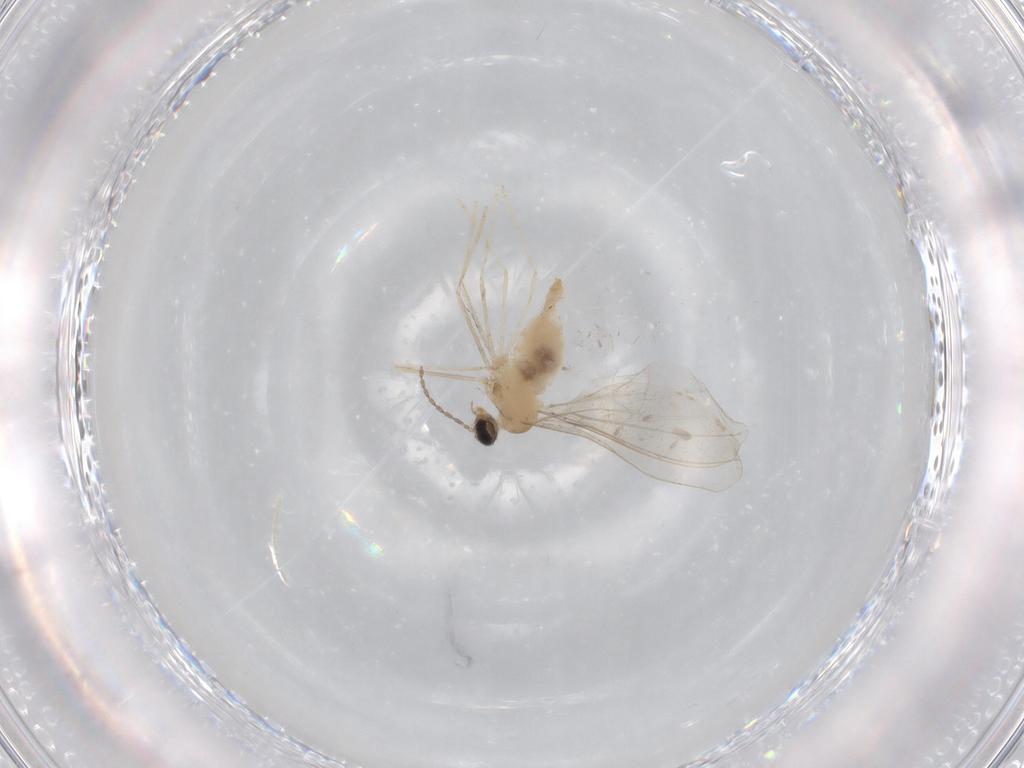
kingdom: Animalia
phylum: Arthropoda
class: Insecta
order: Diptera
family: Cecidomyiidae
